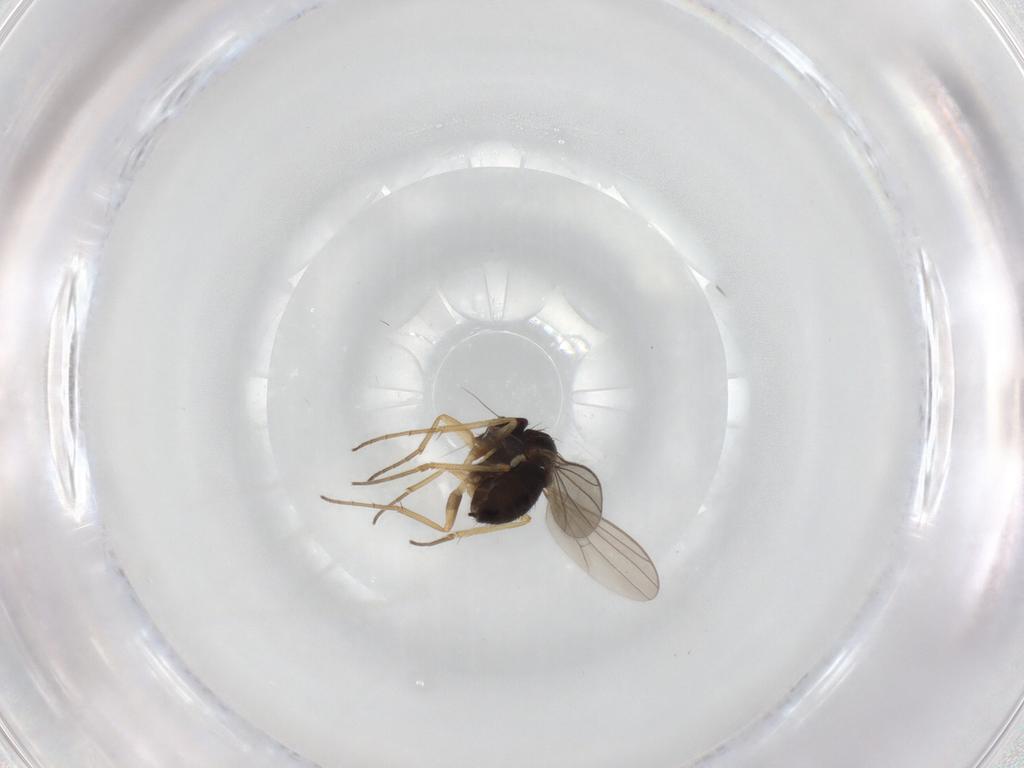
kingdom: Animalia
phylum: Arthropoda
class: Insecta
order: Diptera
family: Dolichopodidae
